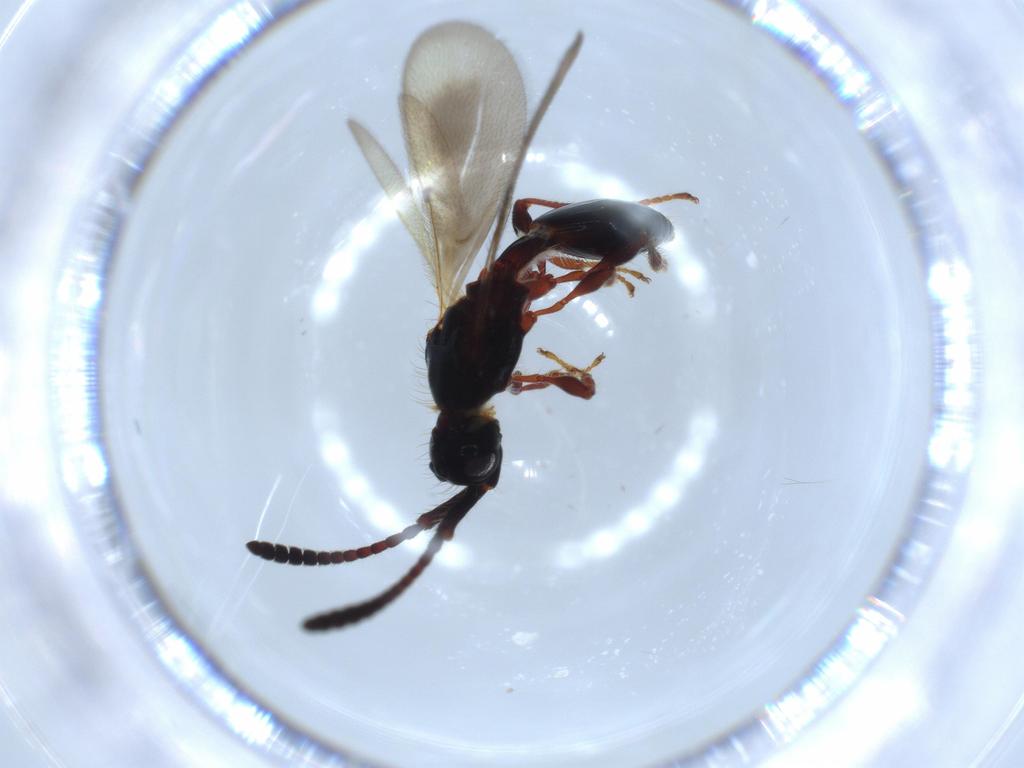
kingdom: Animalia
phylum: Arthropoda
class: Insecta
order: Hymenoptera
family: Diapriidae
